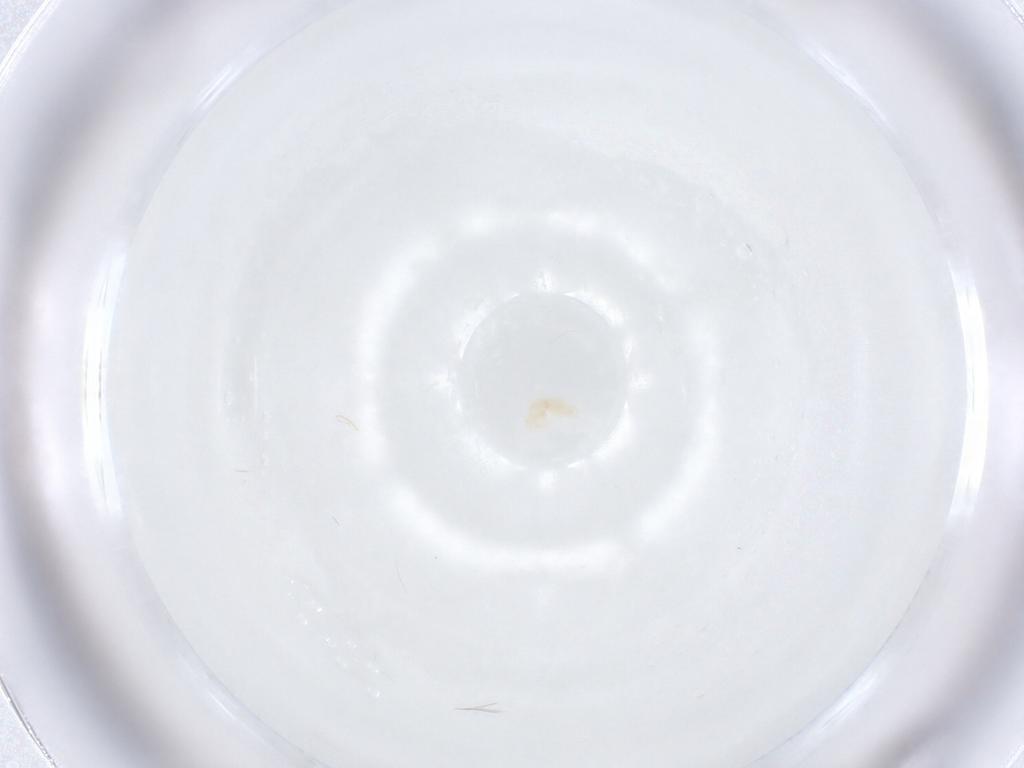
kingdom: Animalia
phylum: Arthropoda
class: Arachnida
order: Trombidiformes
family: Tetranychidae
